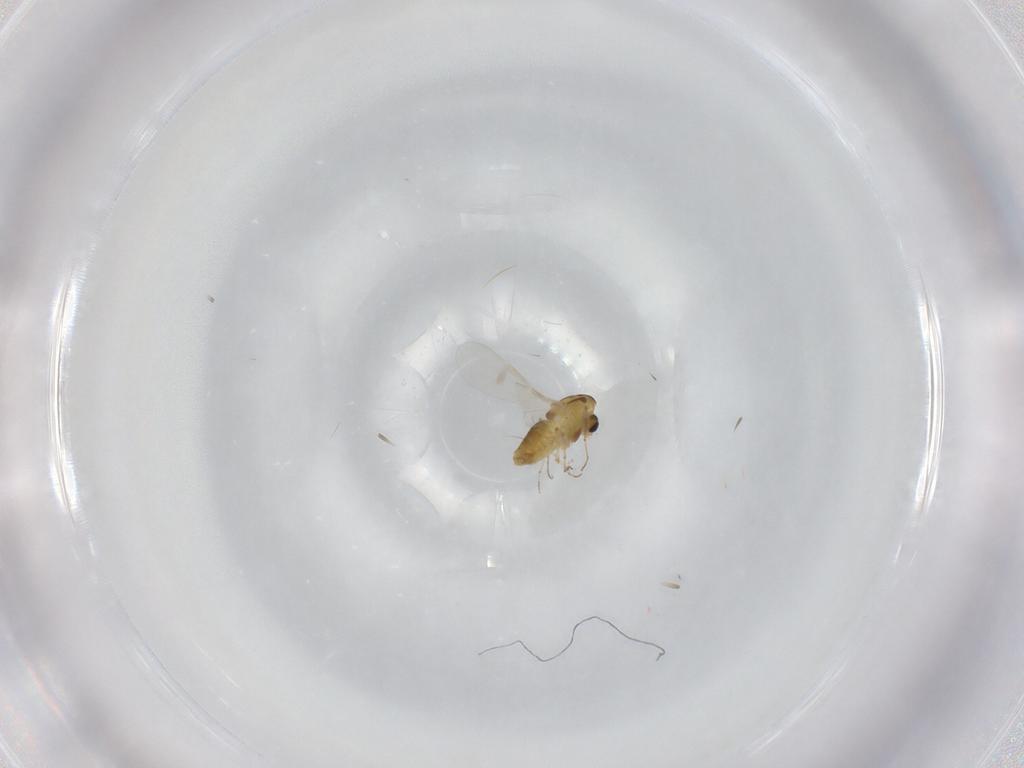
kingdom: Animalia
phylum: Arthropoda
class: Insecta
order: Diptera
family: Chironomidae
